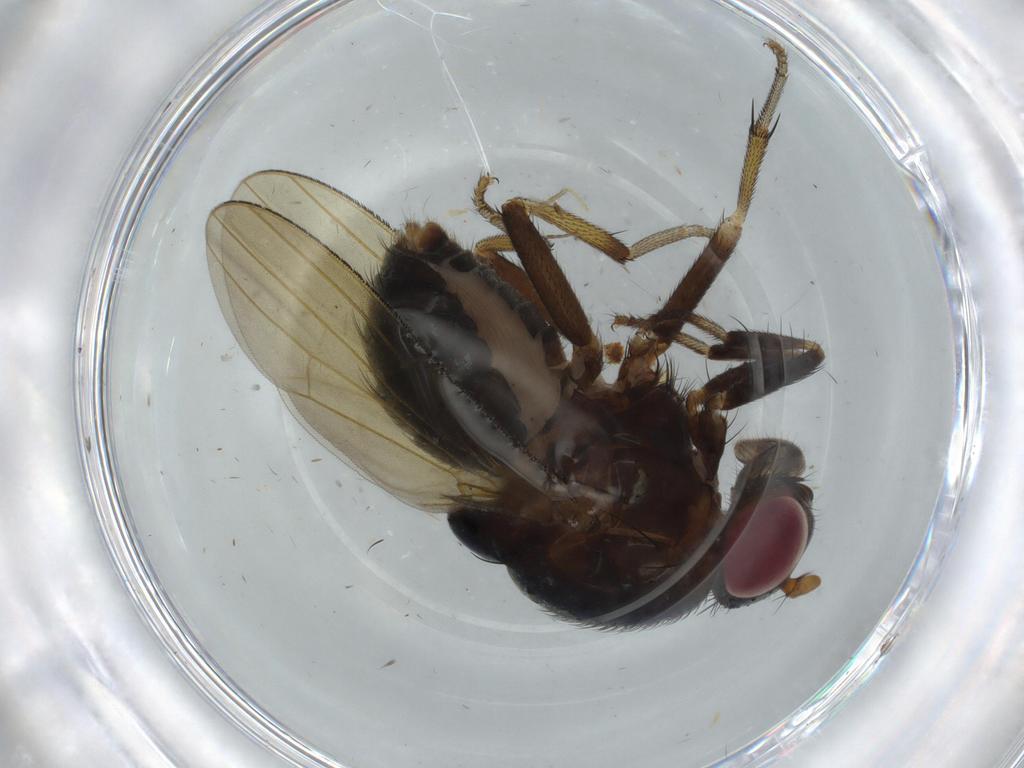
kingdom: Animalia
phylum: Arthropoda
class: Insecta
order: Diptera
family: Chironomidae
